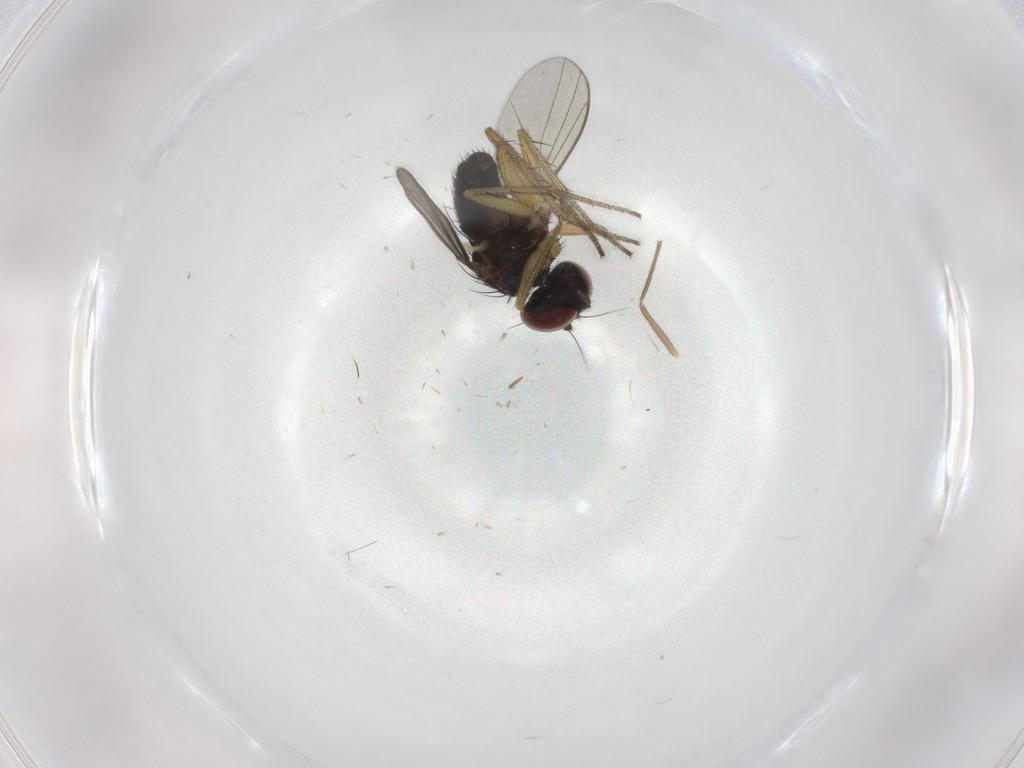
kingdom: Animalia
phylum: Arthropoda
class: Insecta
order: Diptera
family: Dolichopodidae
